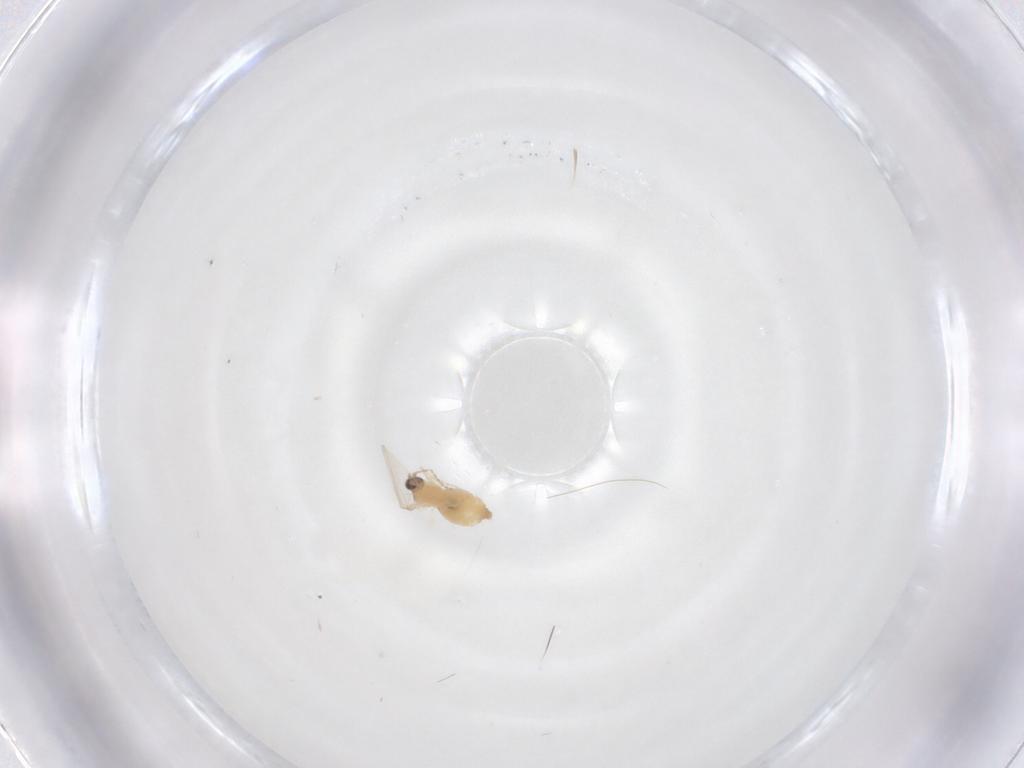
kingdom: Animalia
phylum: Arthropoda
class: Insecta
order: Diptera
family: Cecidomyiidae
